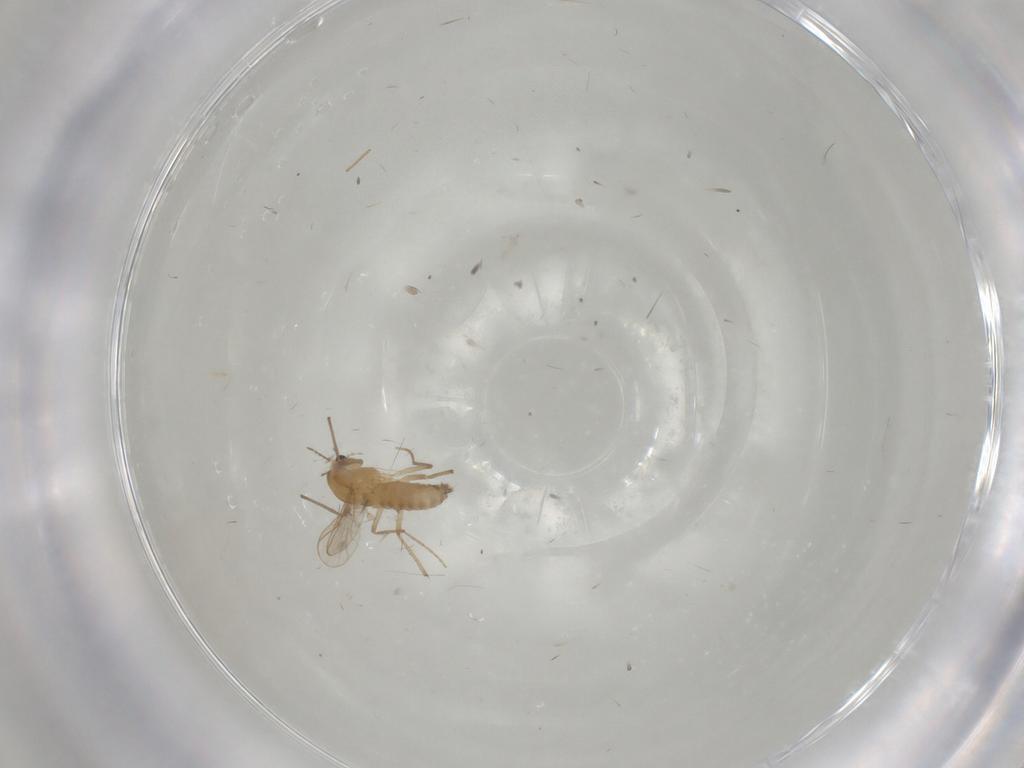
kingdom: Animalia
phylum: Arthropoda
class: Insecta
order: Diptera
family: Chironomidae
